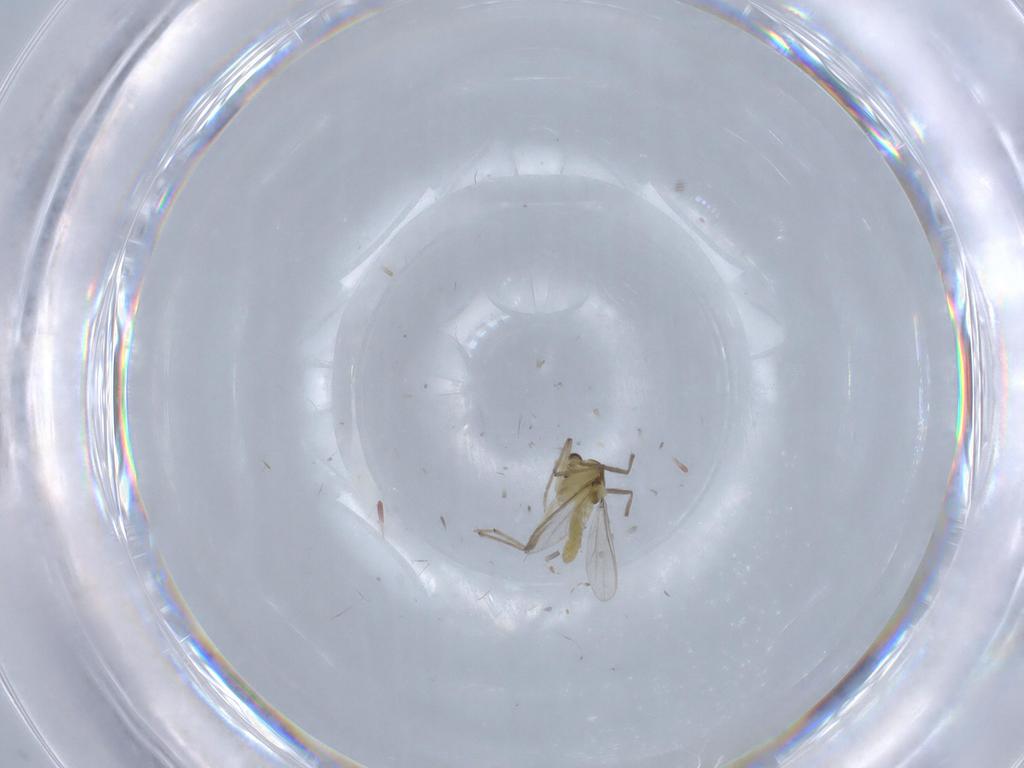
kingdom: Animalia
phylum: Arthropoda
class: Insecta
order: Diptera
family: Chironomidae
